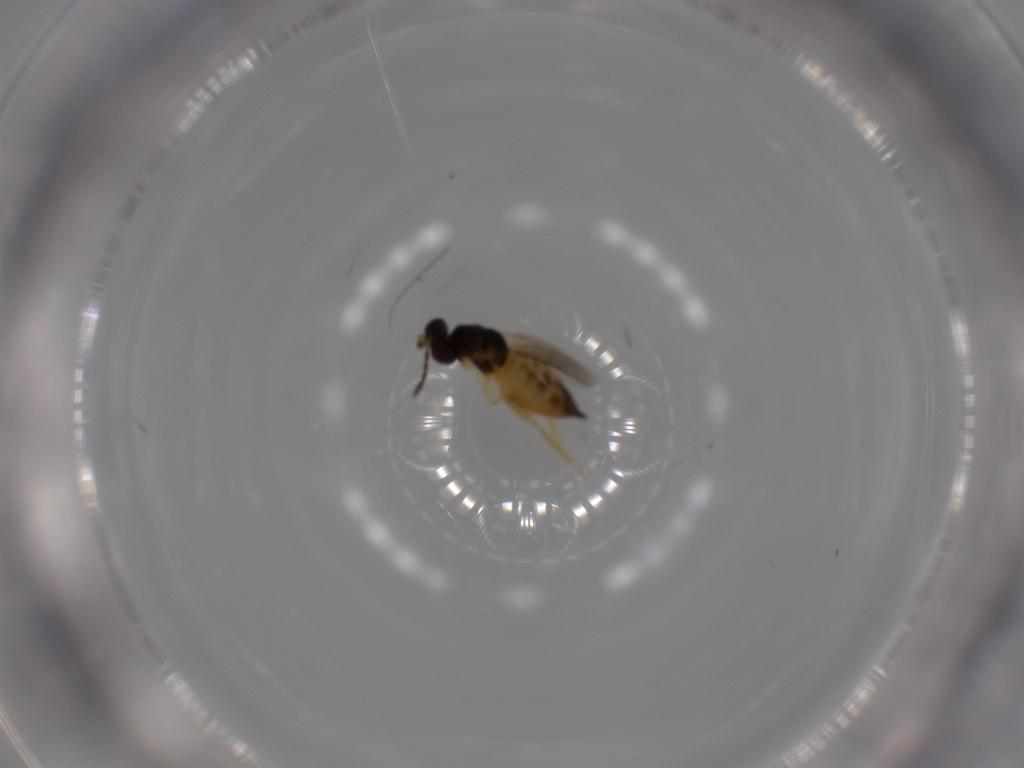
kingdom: Animalia
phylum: Arthropoda
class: Insecta
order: Hymenoptera
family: Eulophidae
